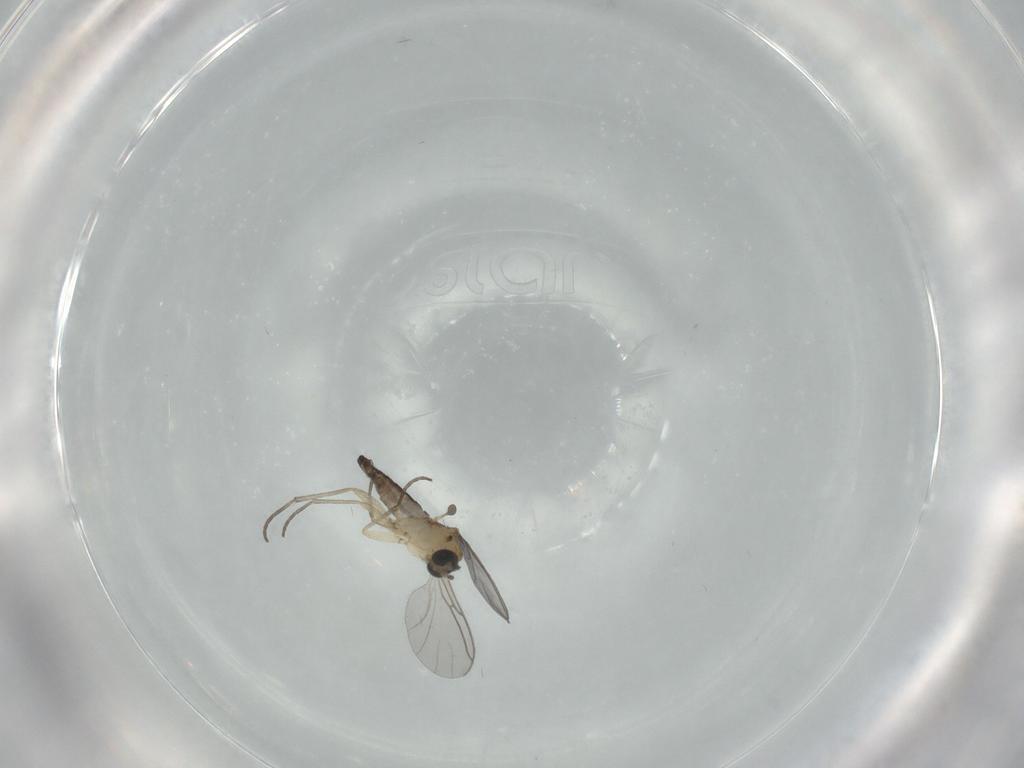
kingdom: Animalia
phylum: Arthropoda
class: Insecta
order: Diptera
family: Sciaridae
